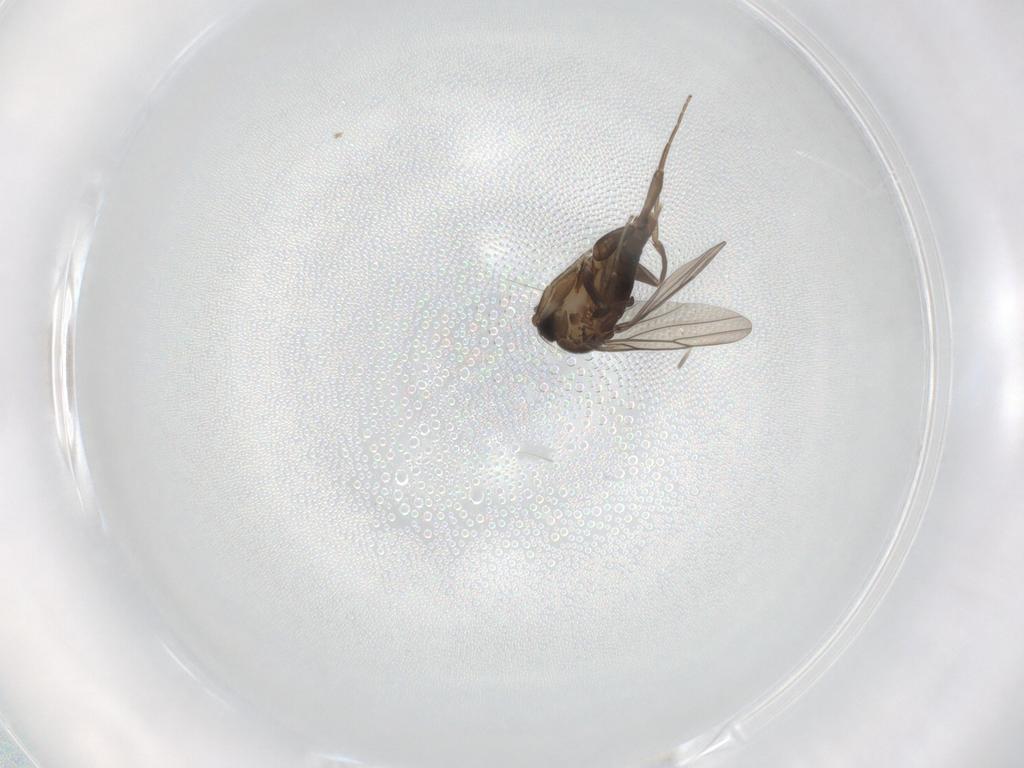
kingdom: Animalia
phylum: Arthropoda
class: Insecta
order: Diptera
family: Phoridae
